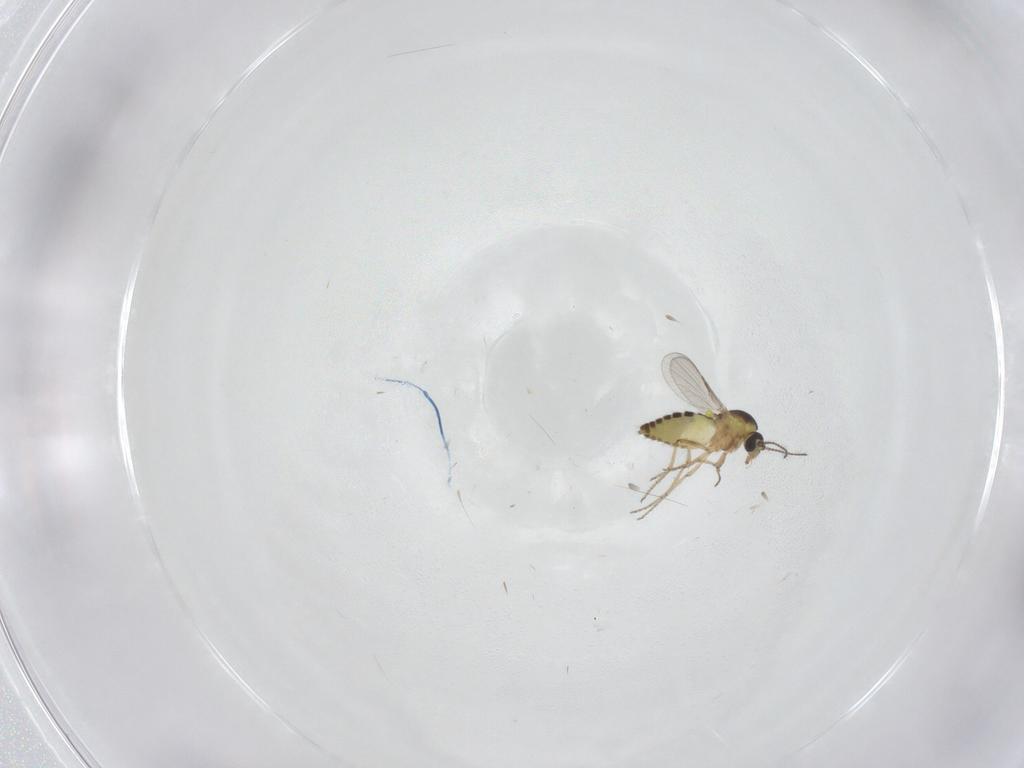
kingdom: Animalia
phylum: Arthropoda
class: Insecta
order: Diptera
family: Ceratopogonidae
